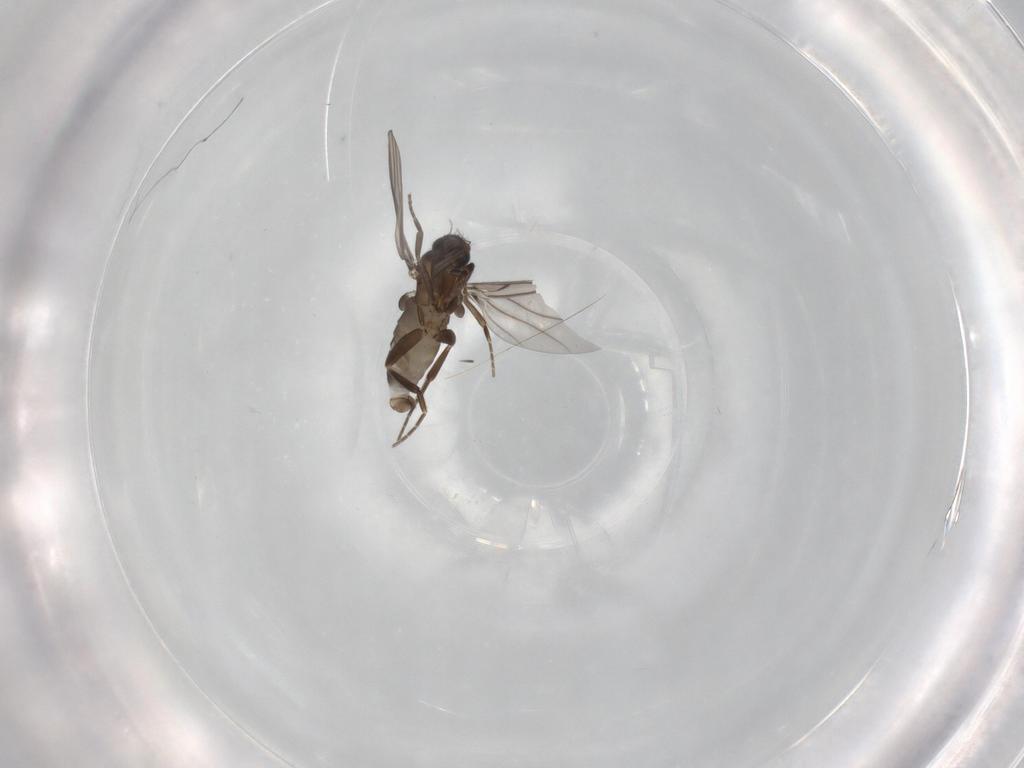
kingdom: Animalia
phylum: Arthropoda
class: Insecta
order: Diptera
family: Phoridae
